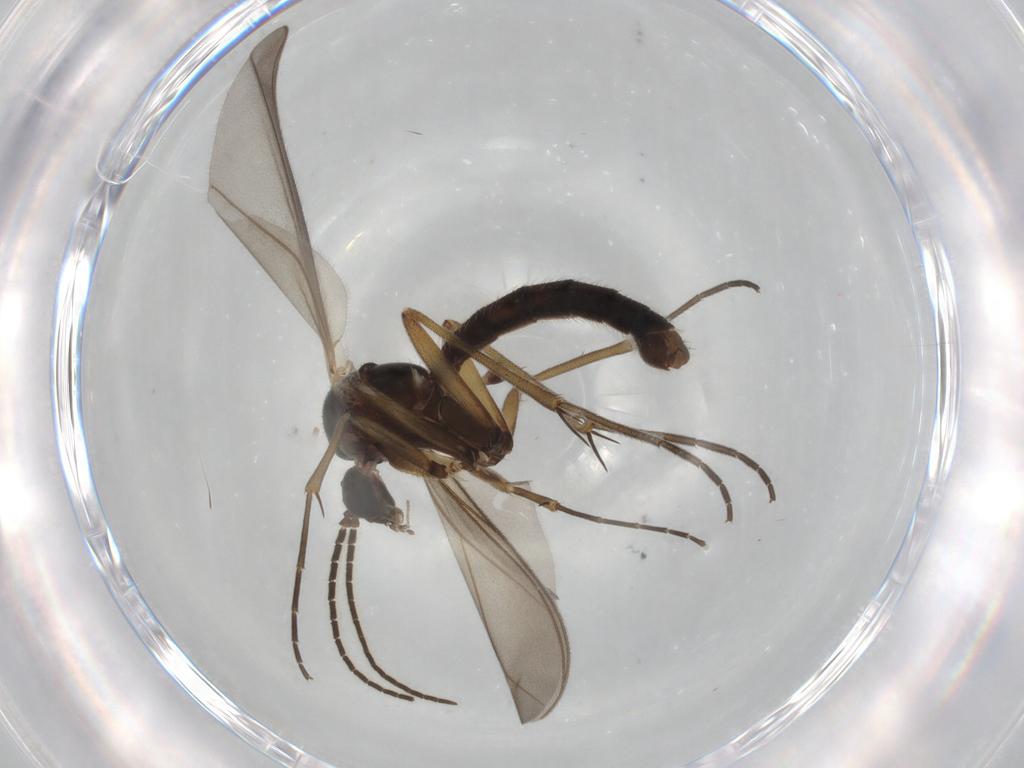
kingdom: Animalia
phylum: Arthropoda
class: Insecta
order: Diptera
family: Mycetophilidae
